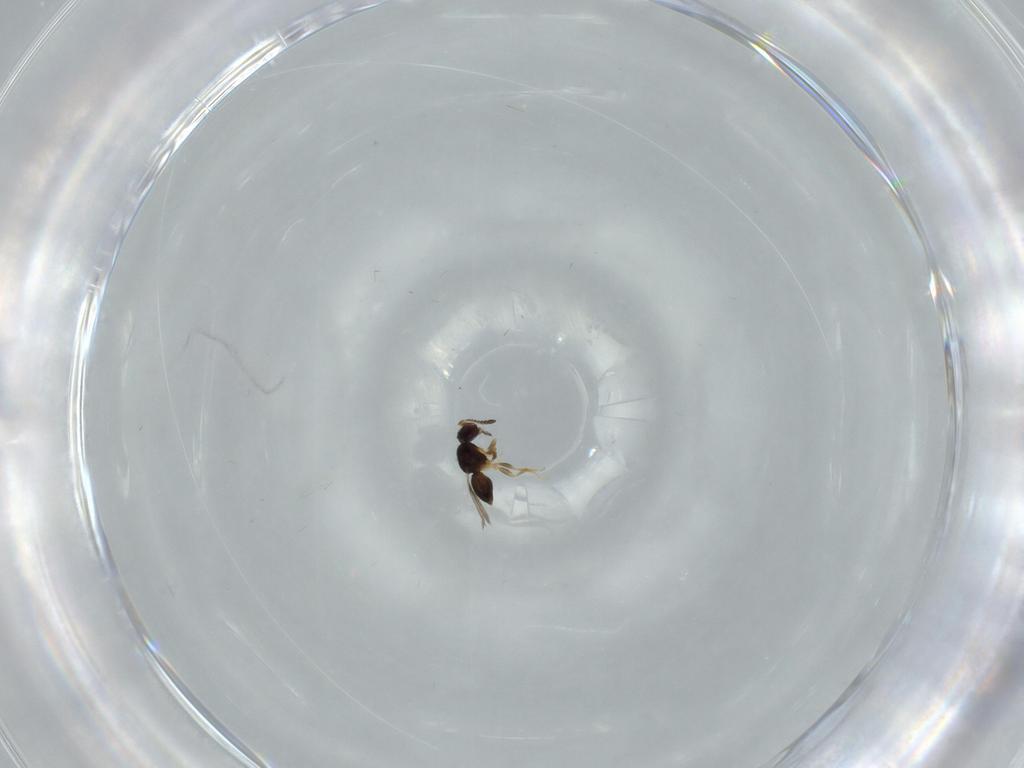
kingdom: Animalia
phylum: Arthropoda
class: Insecta
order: Hymenoptera
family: Aphelinidae
